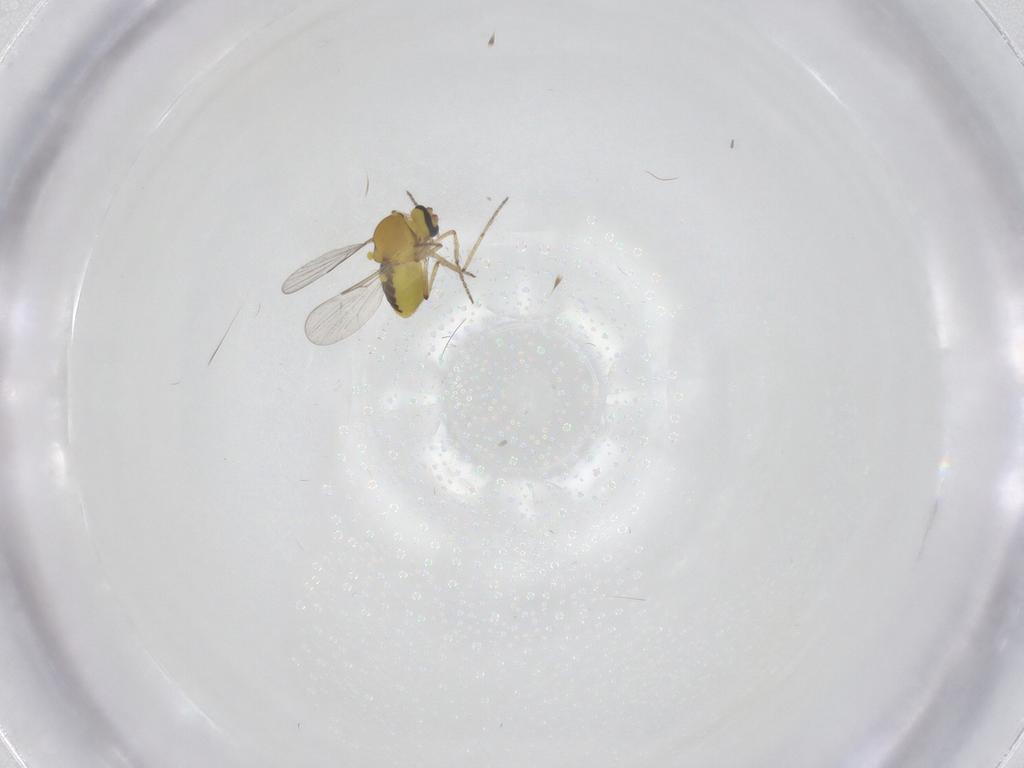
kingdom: Animalia
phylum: Arthropoda
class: Insecta
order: Diptera
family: Ceratopogonidae
